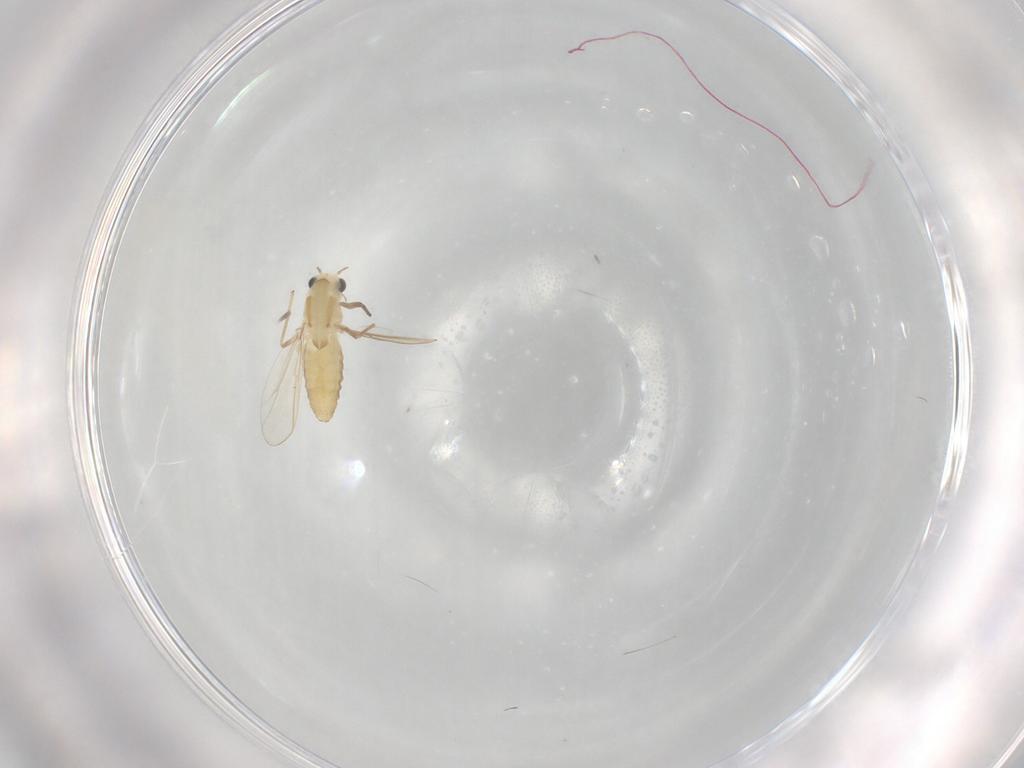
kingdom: Animalia
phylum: Arthropoda
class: Insecta
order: Diptera
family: Chironomidae
